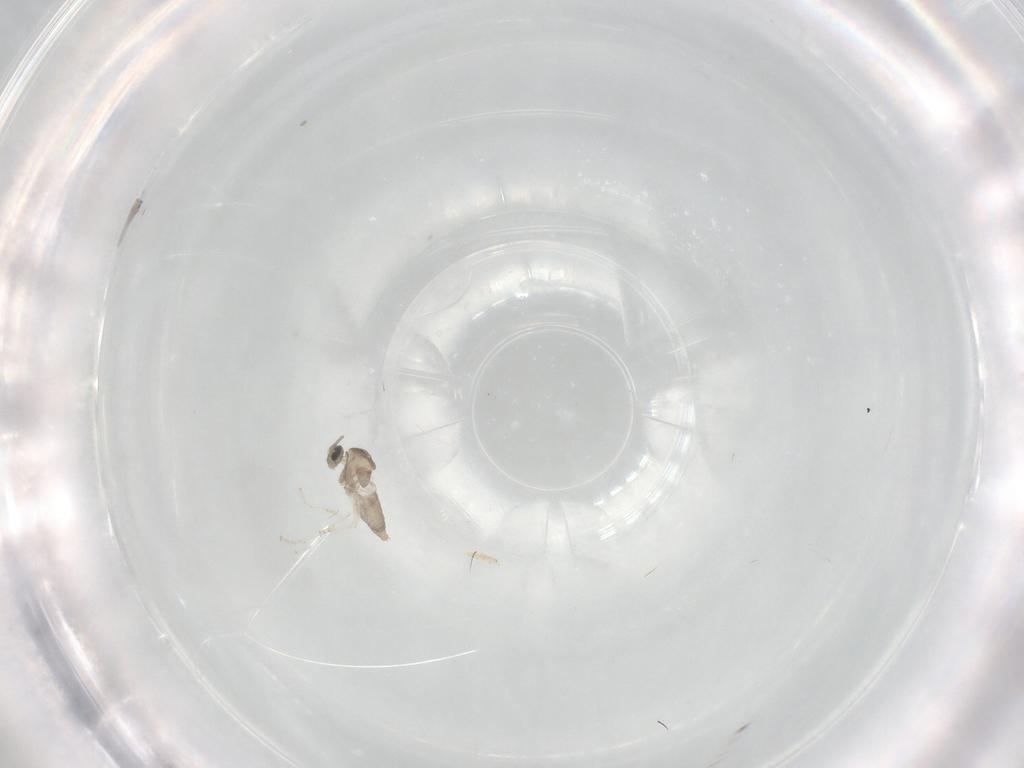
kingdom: Animalia
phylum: Arthropoda
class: Insecta
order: Diptera
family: Cecidomyiidae
